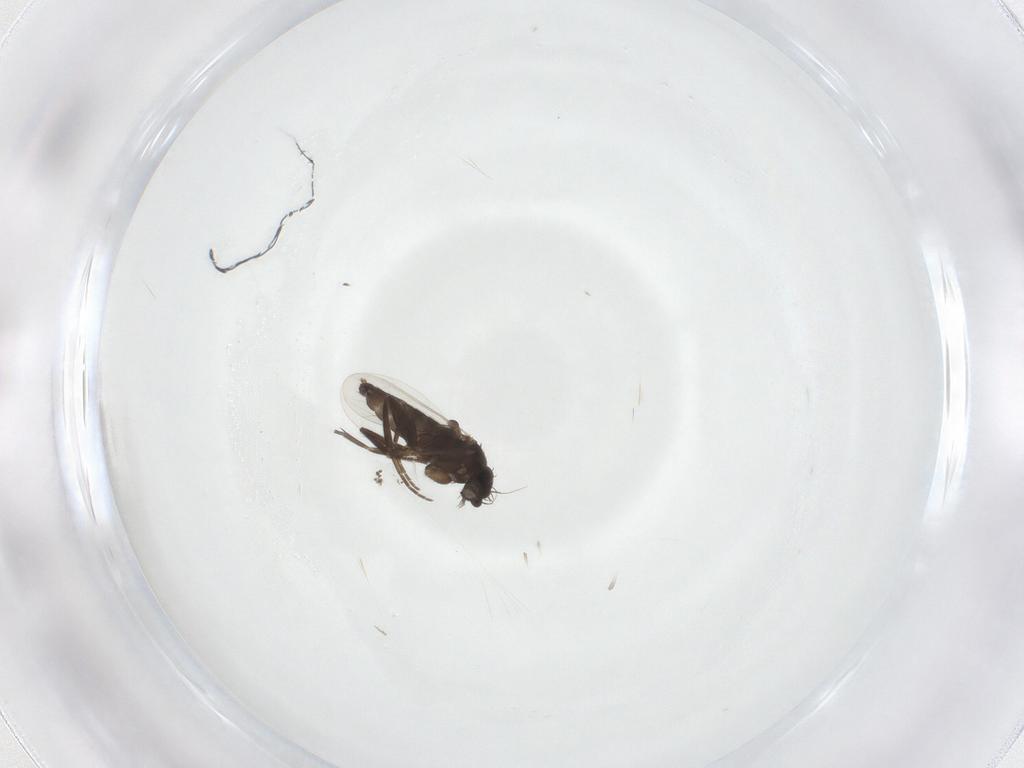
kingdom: Animalia
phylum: Arthropoda
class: Insecta
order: Diptera
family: Phoridae
